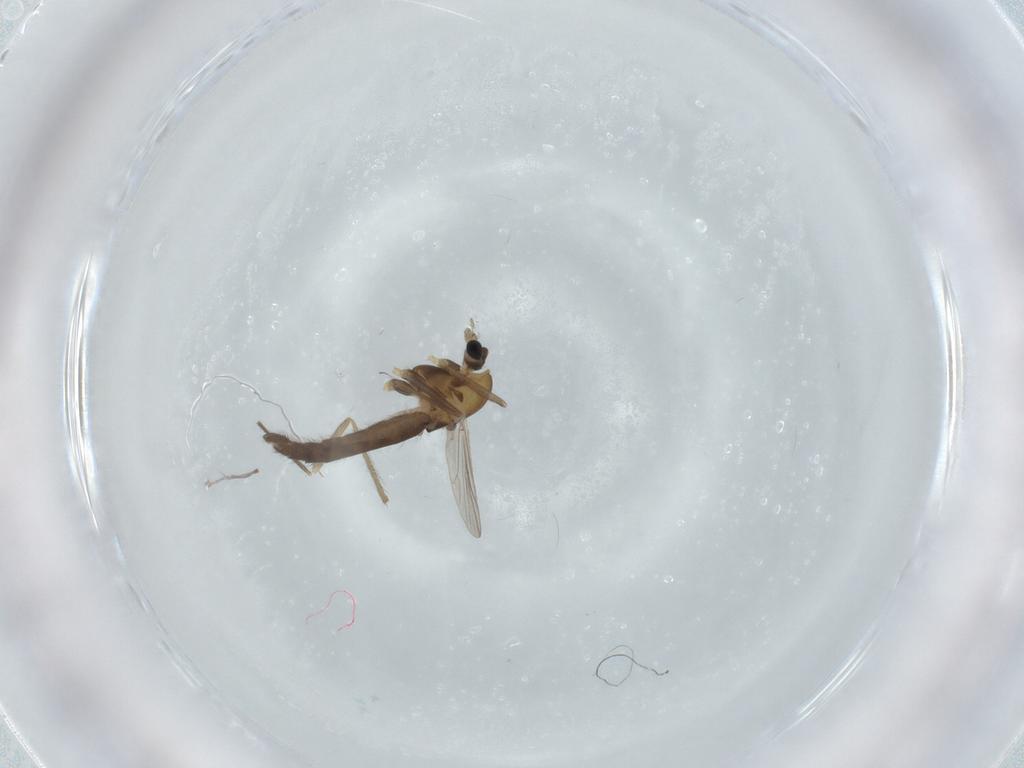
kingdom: Animalia
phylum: Arthropoda
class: Insecta
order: Diptera
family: Chironomidae
